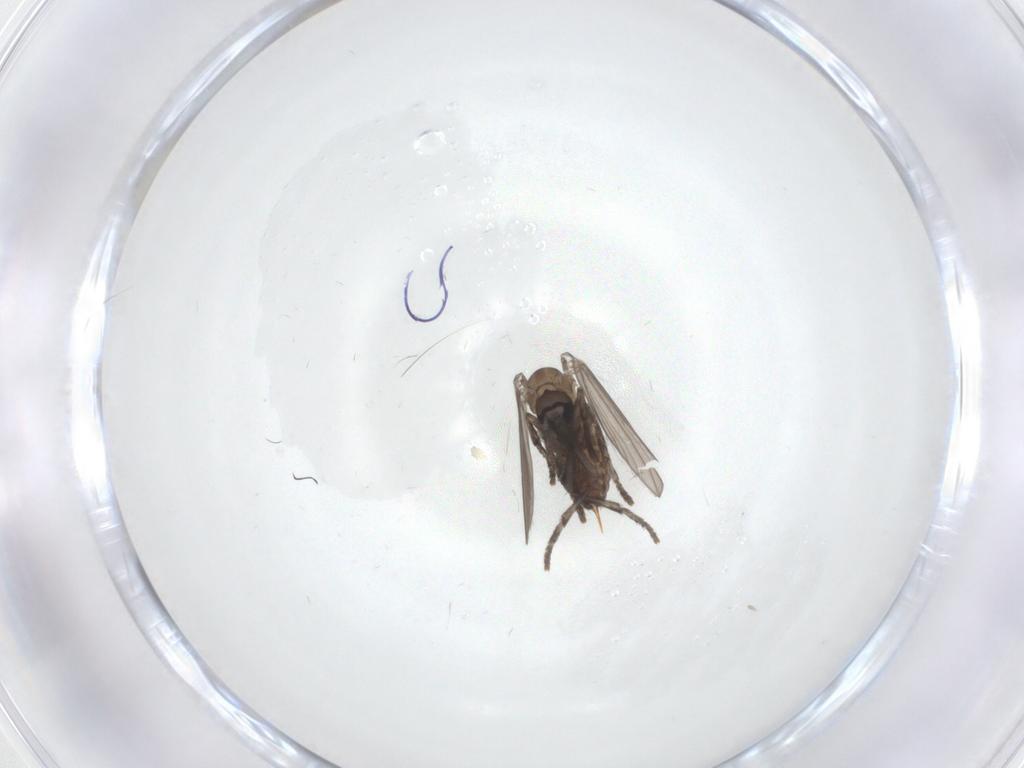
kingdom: Animalia
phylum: Arthropoda
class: Insecta
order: Diptera
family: Psychodidae
